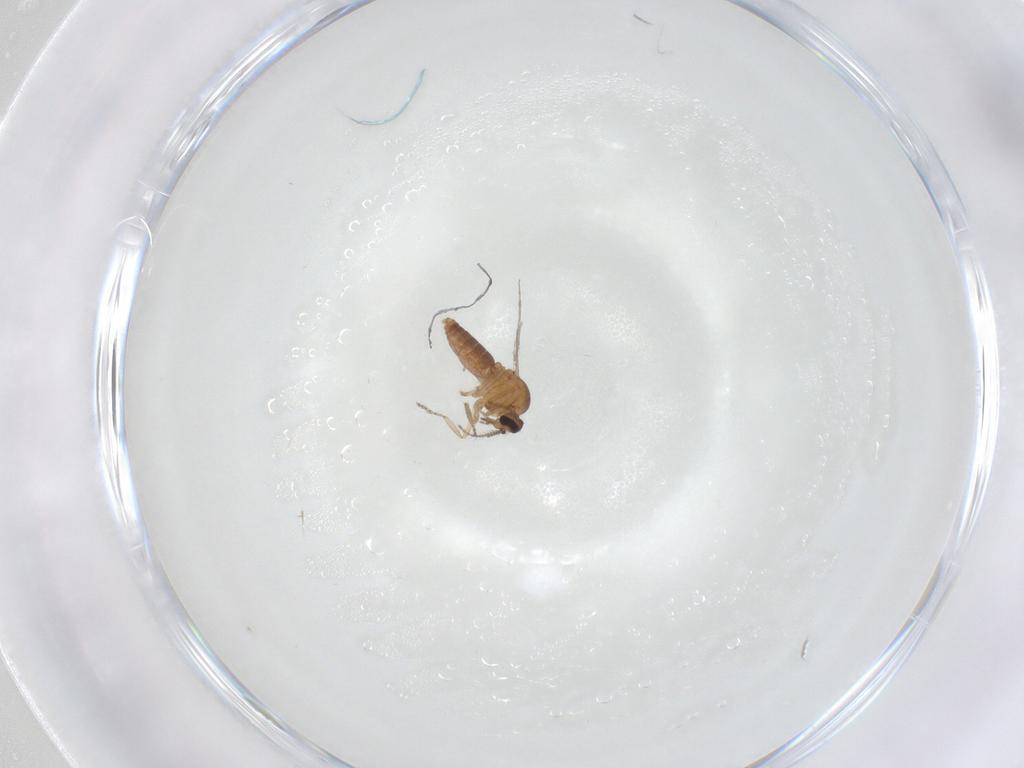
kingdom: Animalia
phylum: Arthropoda
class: Insecta
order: Diptera
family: Ceratopogonidae
